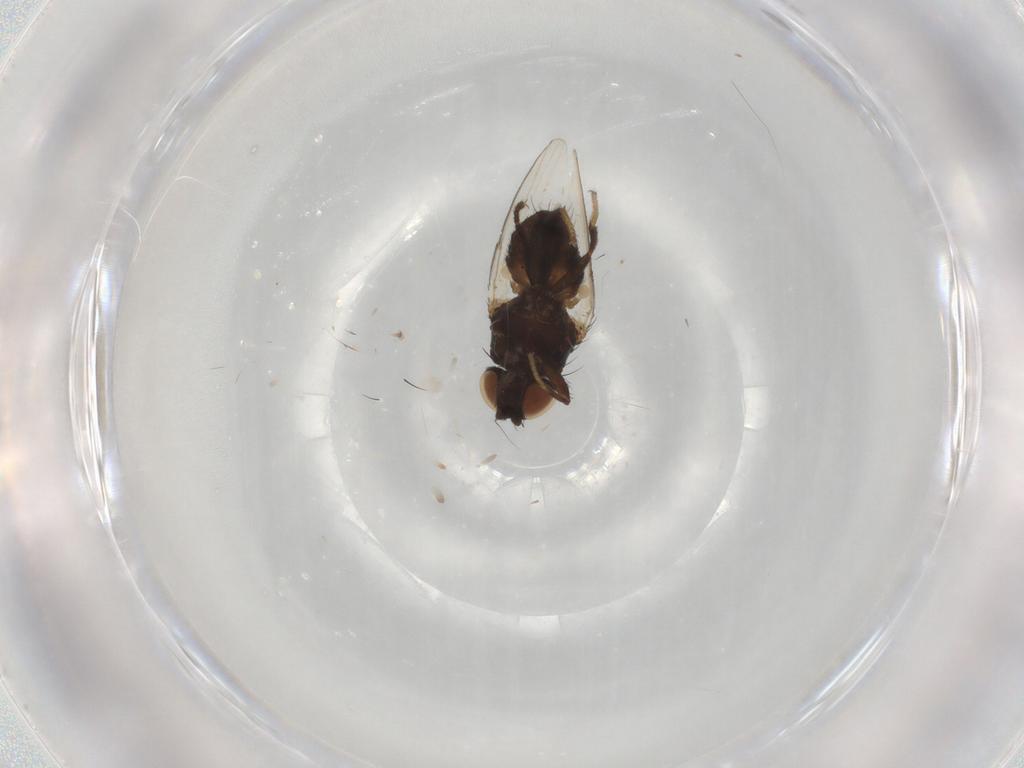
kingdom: Animalia
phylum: Arthropoda
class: Insecta
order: Diptera
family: Milichiidae
